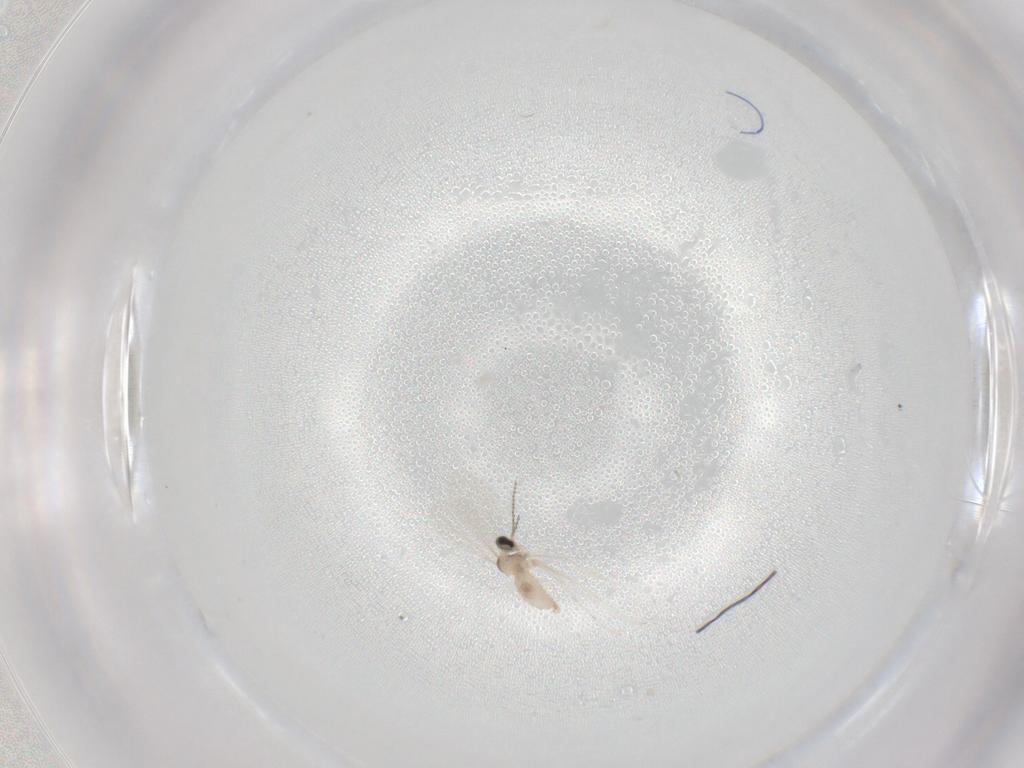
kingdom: Animalia
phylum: Arthropoda
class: Insecta
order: Diptera
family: Cecidomyiidae
